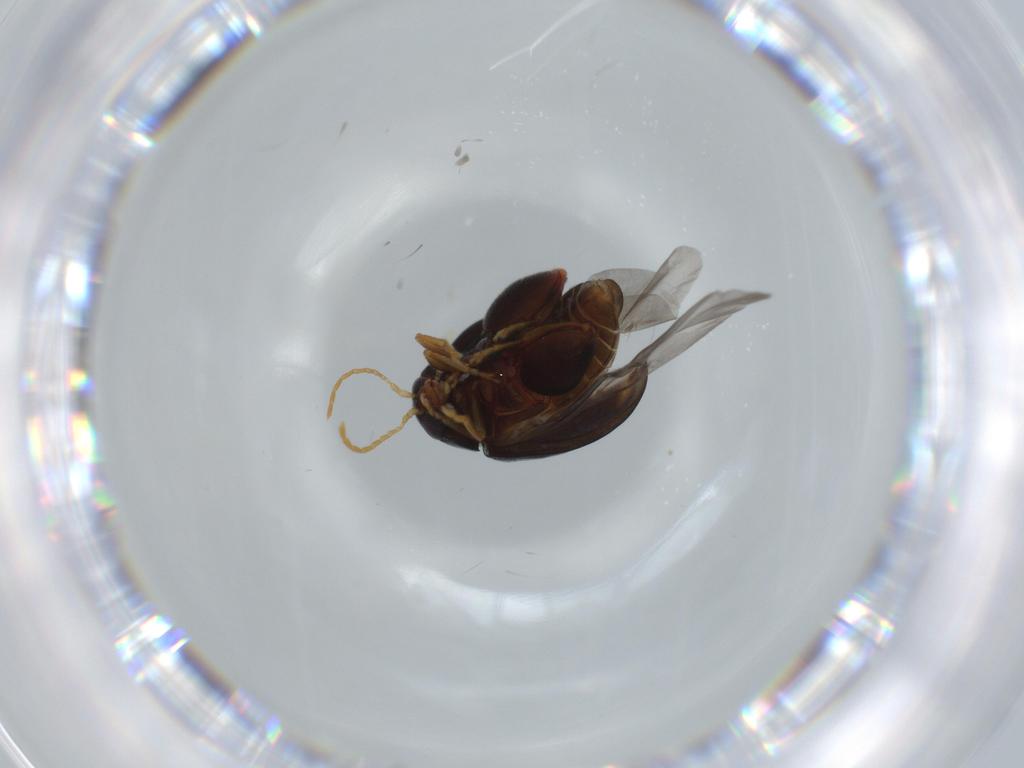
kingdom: Animalia
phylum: Arthropoda
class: Insecta
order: Coleoptera
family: Chrysomelidae
